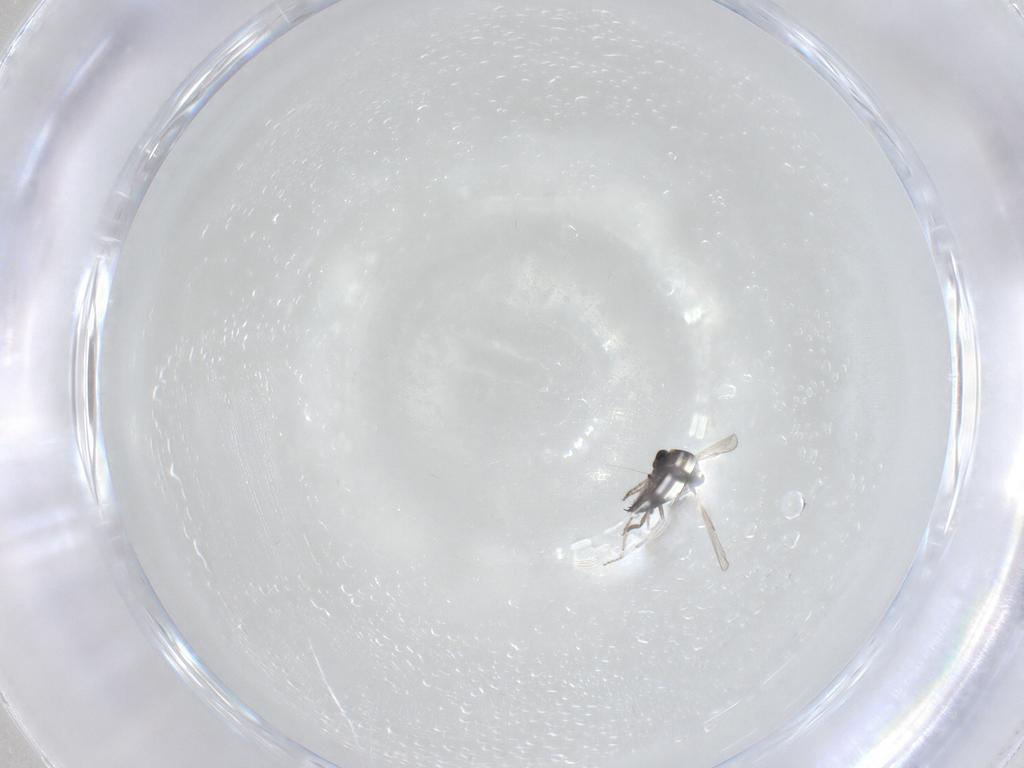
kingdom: Animalia
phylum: Arthropoda
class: Insecta
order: Diptera
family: Ceratopogonidae
